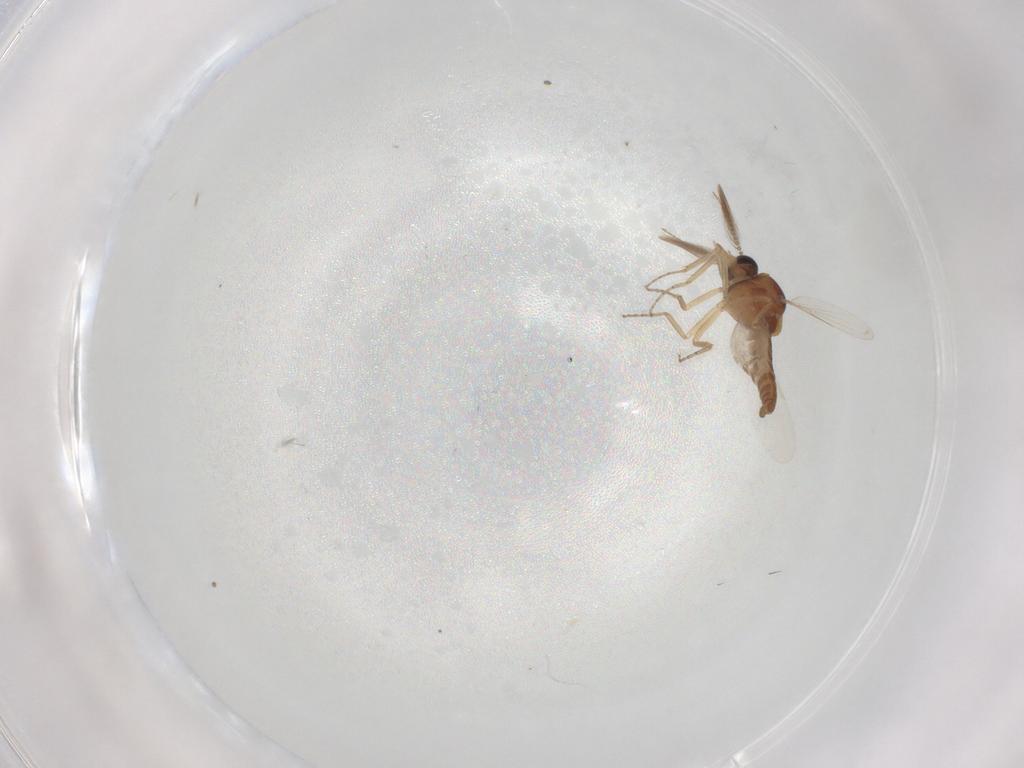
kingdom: Animalia
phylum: Arthropoda
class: Insecta
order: Diptera
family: Ceratopogonidae
